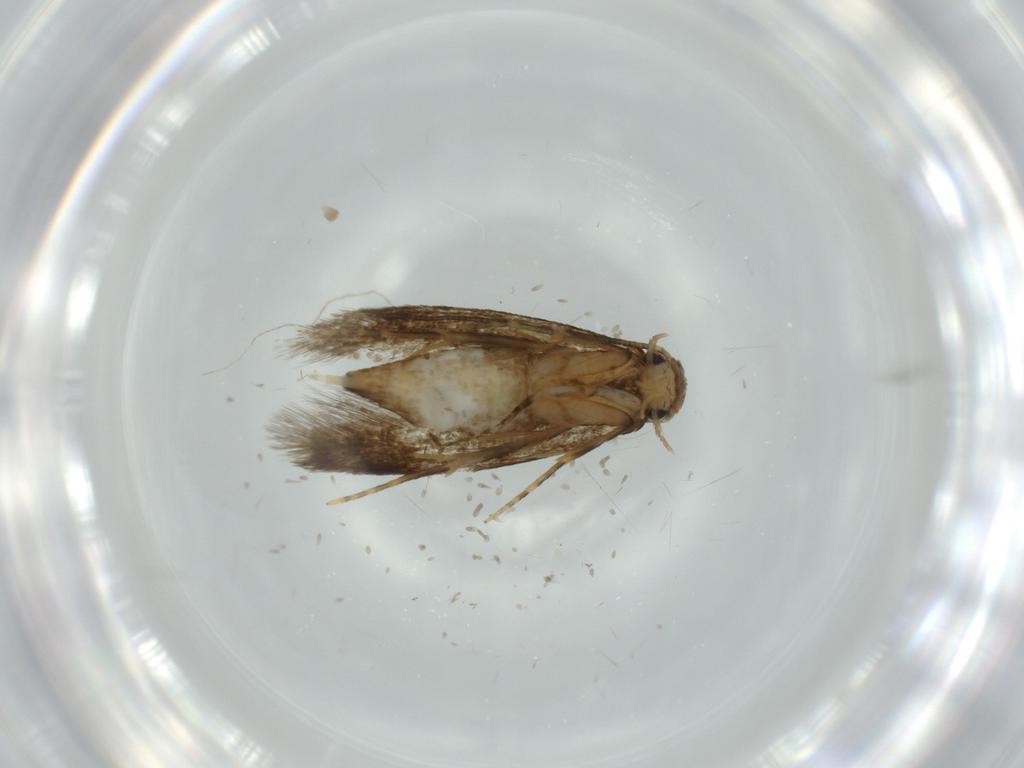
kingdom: Animalia
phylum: Arthropoda
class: Insecta
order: Lepidoptera
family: Tineidae
